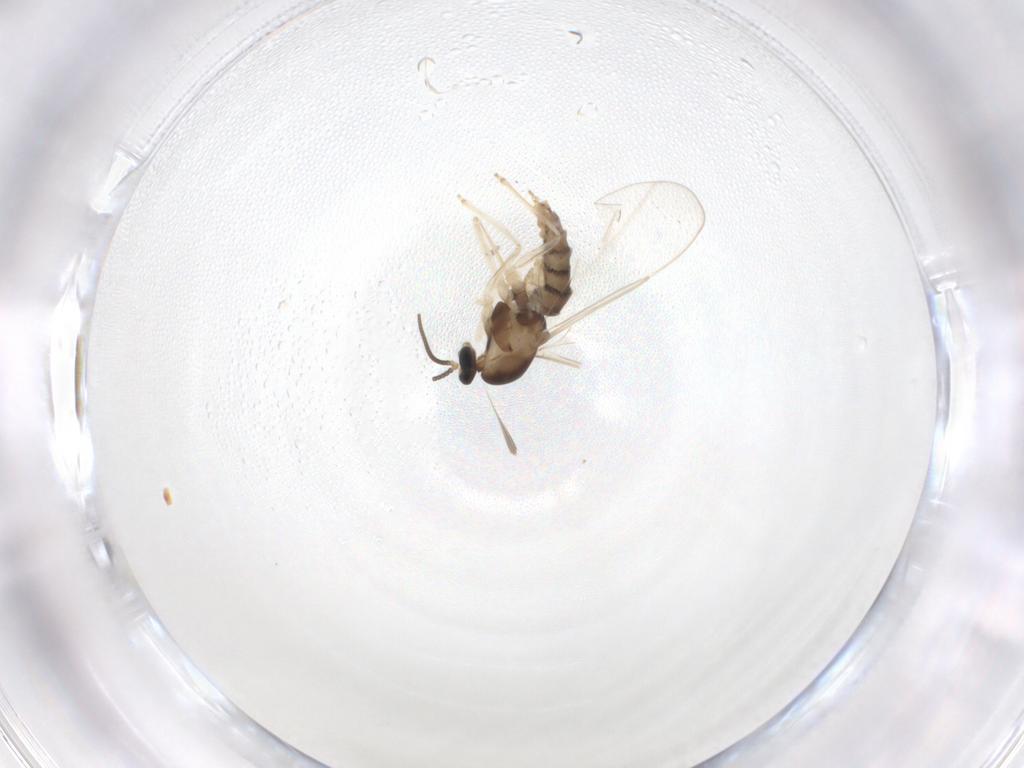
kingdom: Animalia
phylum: Arthropoda
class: Insecta
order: Diptera
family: Cecidomyiidae
